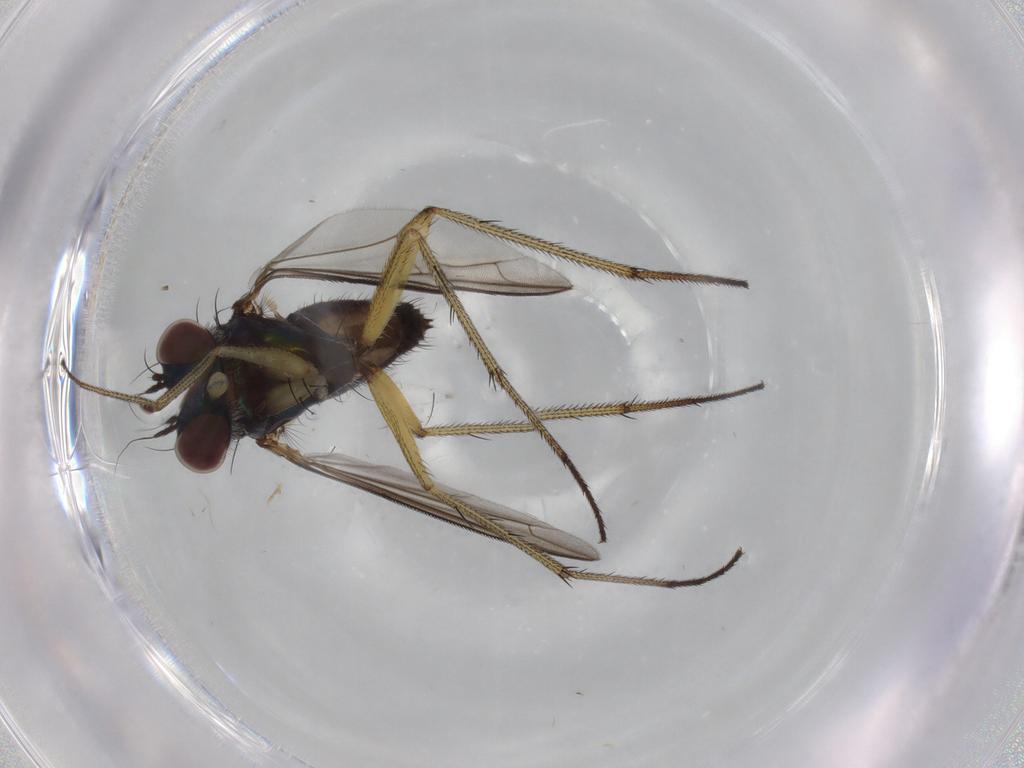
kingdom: Animalia
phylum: Arthropoda
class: Insecta
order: Diptera
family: Dolichopodidae
